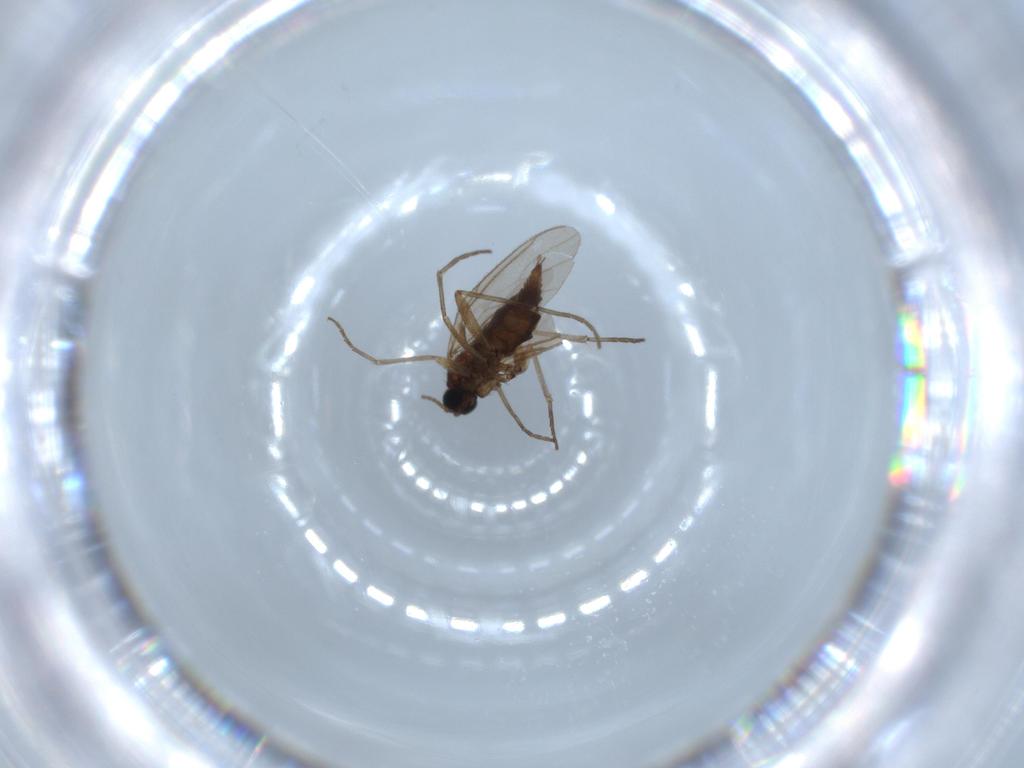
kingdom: Animalia
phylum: Arthropoda
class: Insecta
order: Diptera
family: Sciaridae
